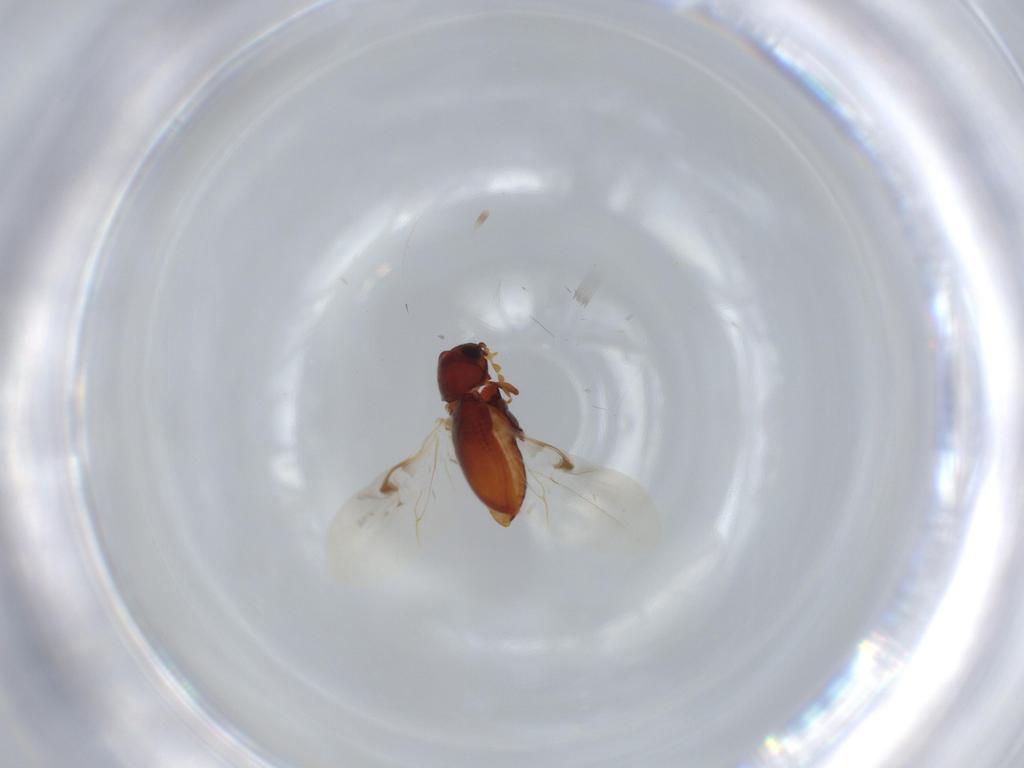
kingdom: Animalia
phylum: Arthropoda
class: Insecta
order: Coleoptera
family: Ptinidae
